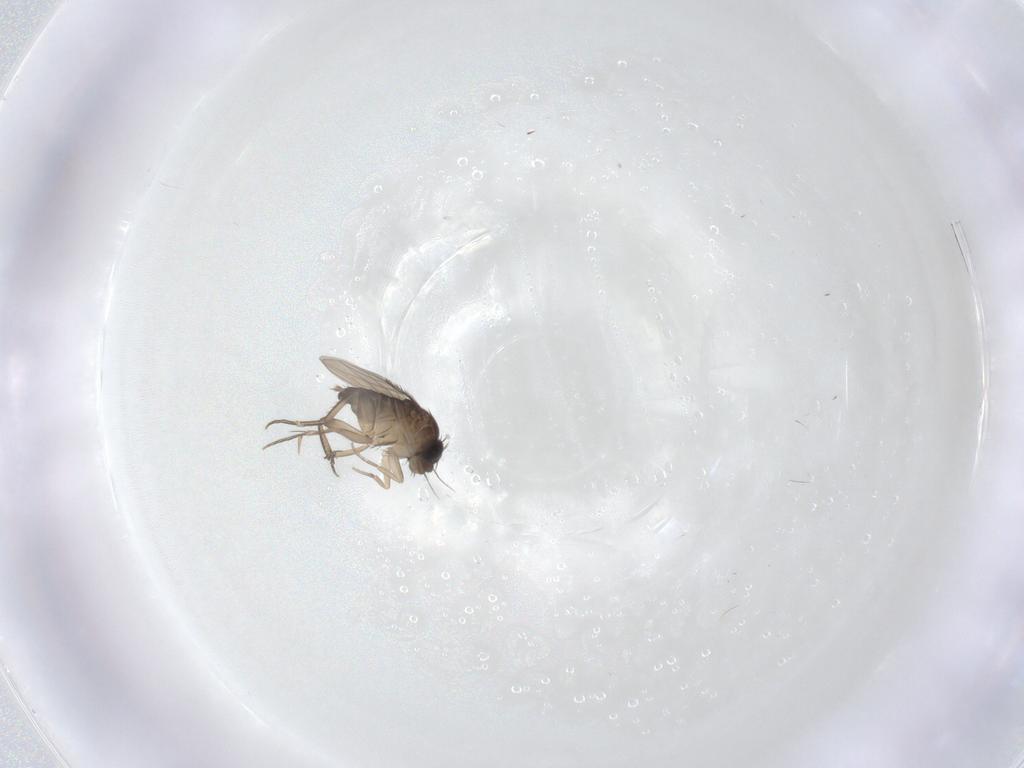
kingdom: Animalia
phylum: Arthropoda
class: Insecta
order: Diptera
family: Phoridae
